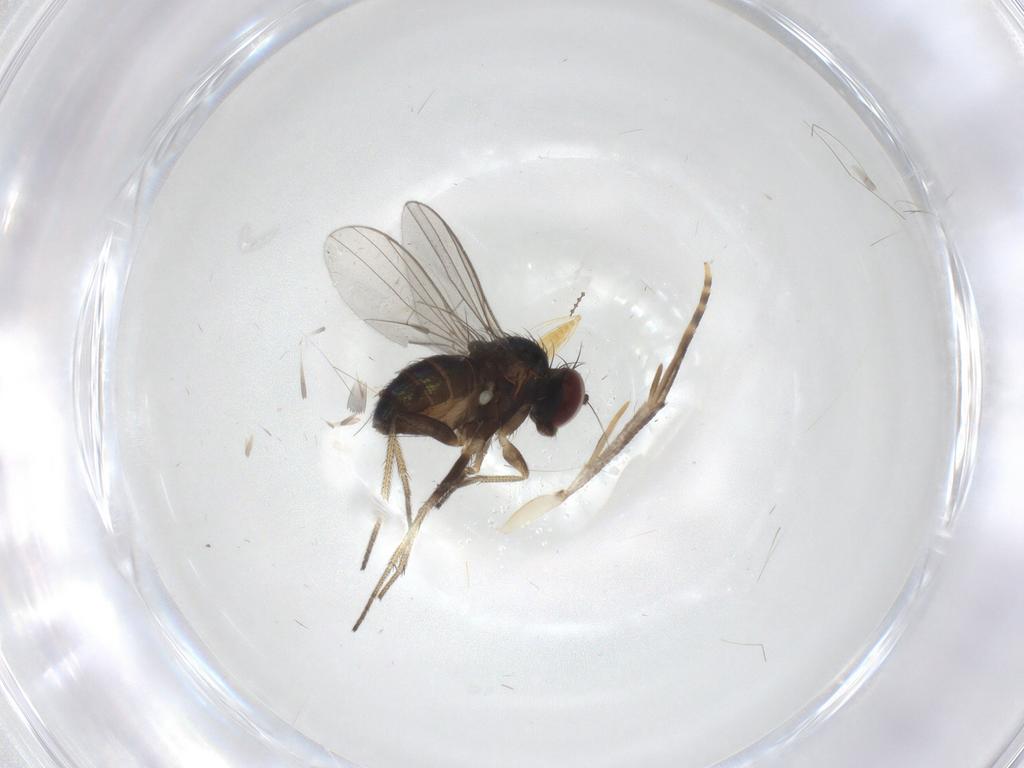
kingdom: Animalia
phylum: Arthropoda
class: Insecta
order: Diptera
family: Ceratopogonidae
